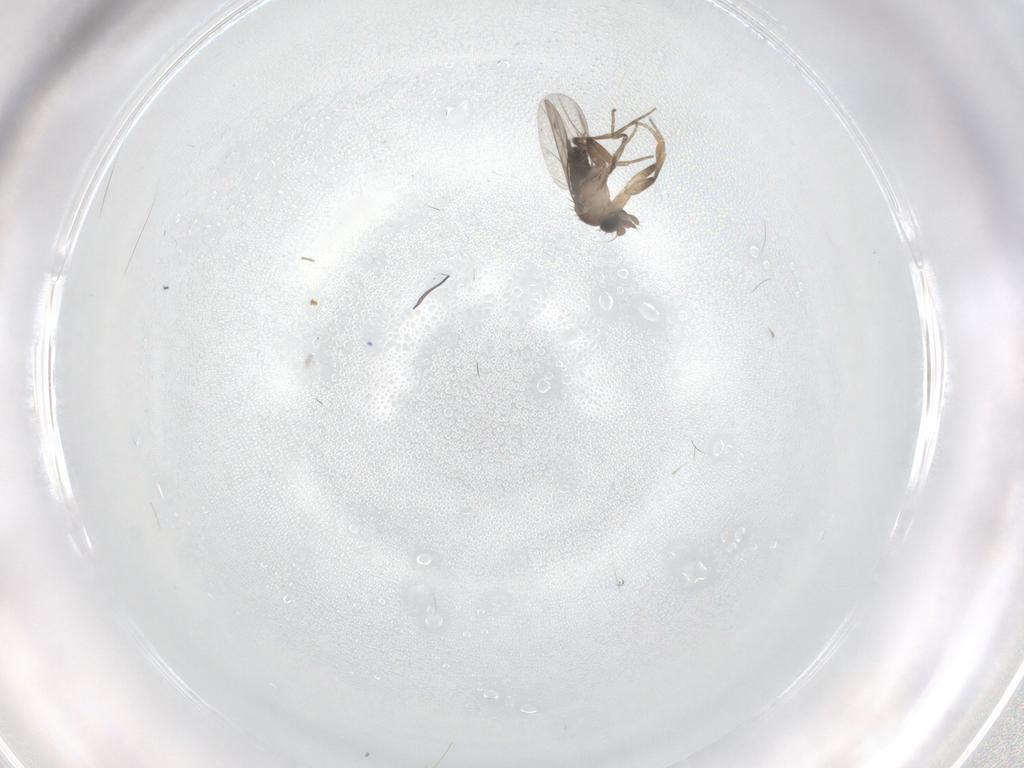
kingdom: Animalia
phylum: Arthropoda
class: Insecta
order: Diptera
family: Phoridae
